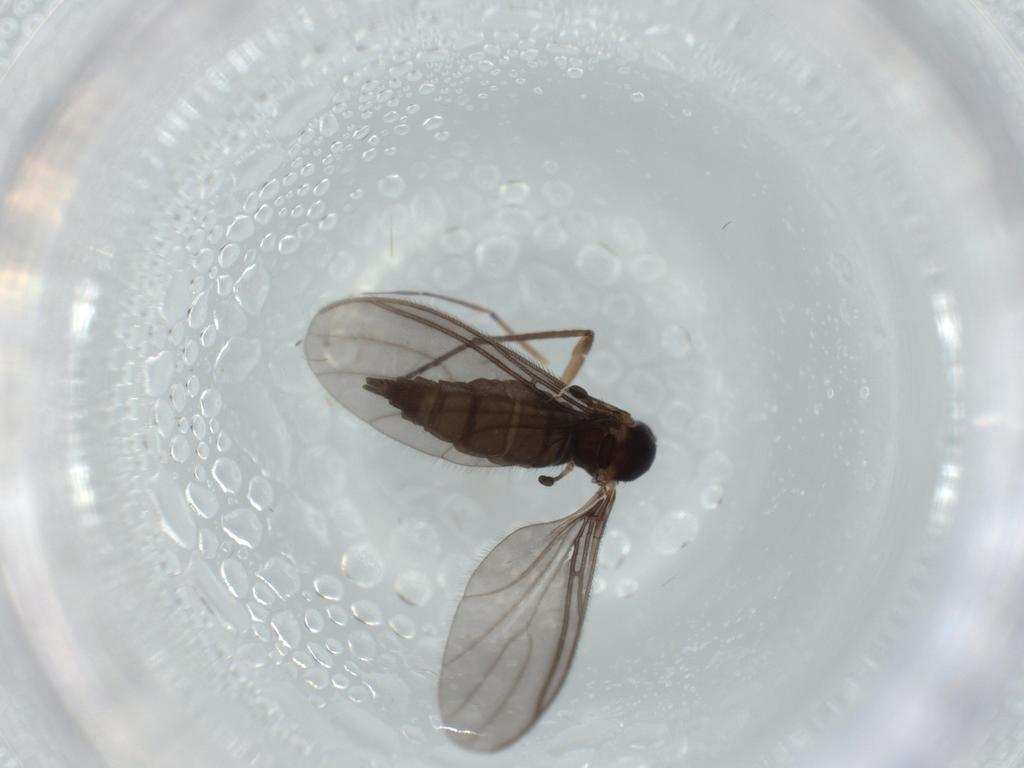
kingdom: Animalia
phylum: Arthropoda
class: Insecta
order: Diptera
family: Sciaridae
